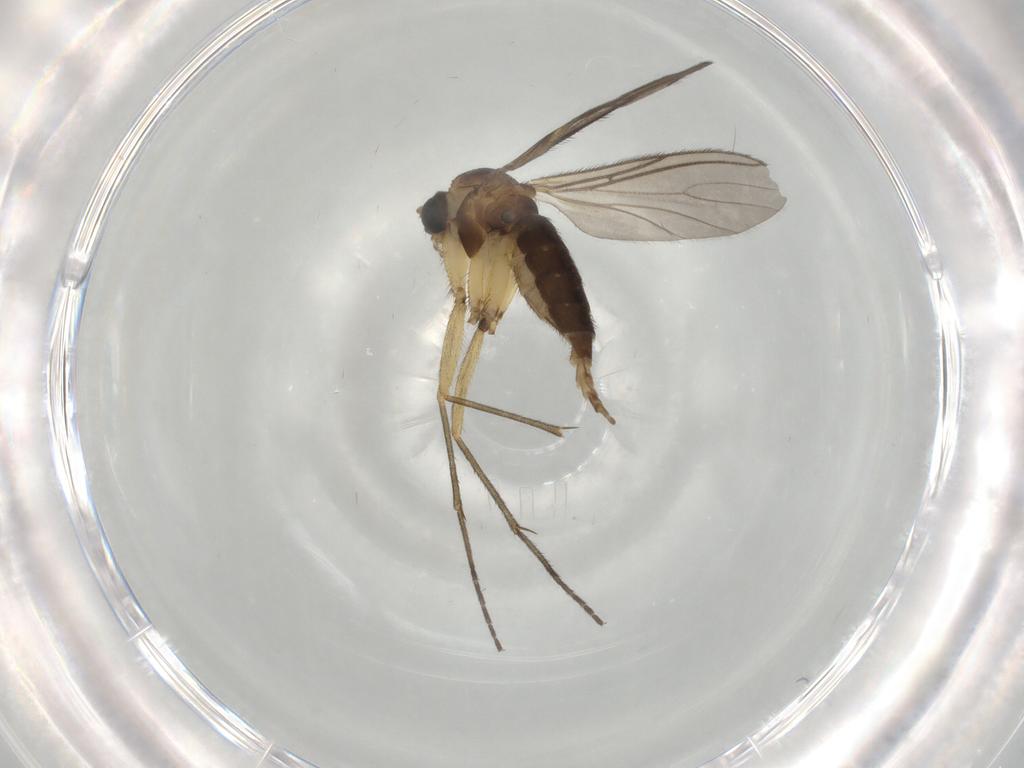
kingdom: Animalia
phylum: Arthropoda
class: Insecta
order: Diptera
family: Sciaridae
